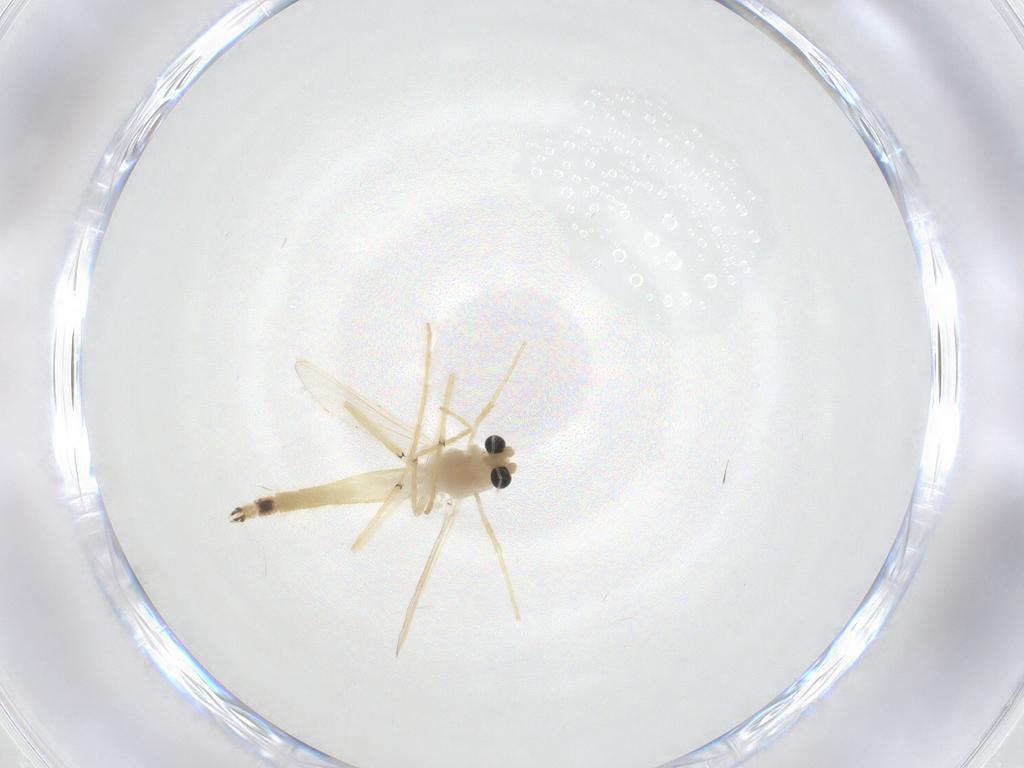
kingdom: Animalia
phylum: Arthropoda
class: Insecta
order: Diptera
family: Chironomidae
